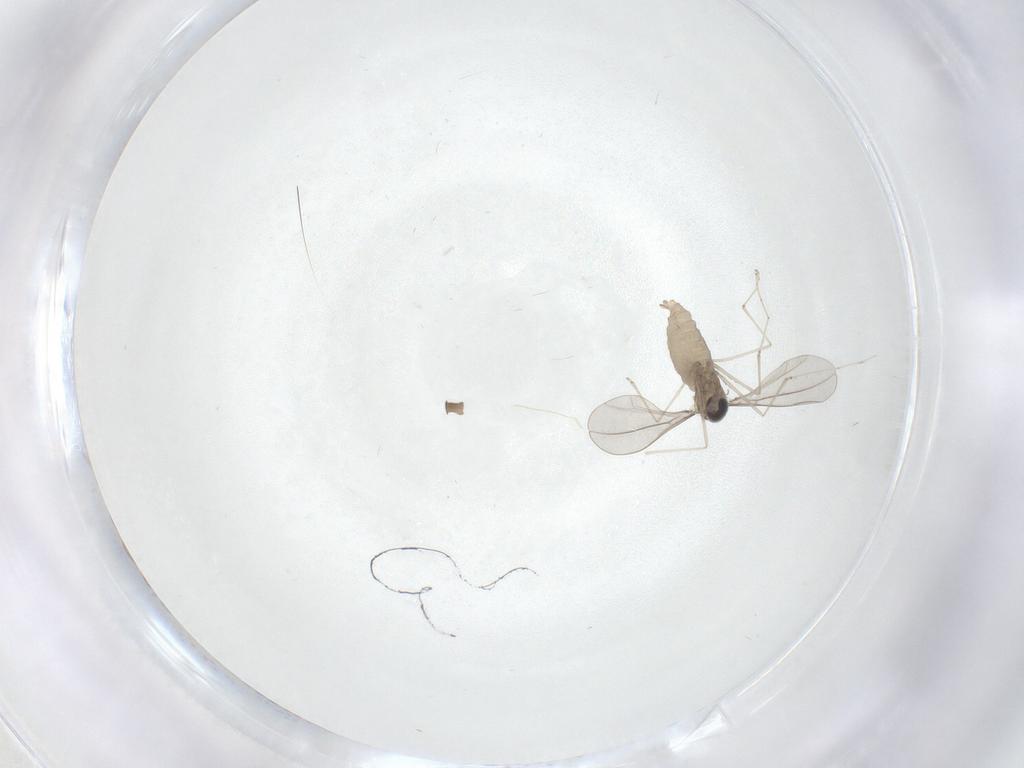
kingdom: Animalia
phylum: Arthropoda
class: Insecta
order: Diptera
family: Cecidomyiidae
